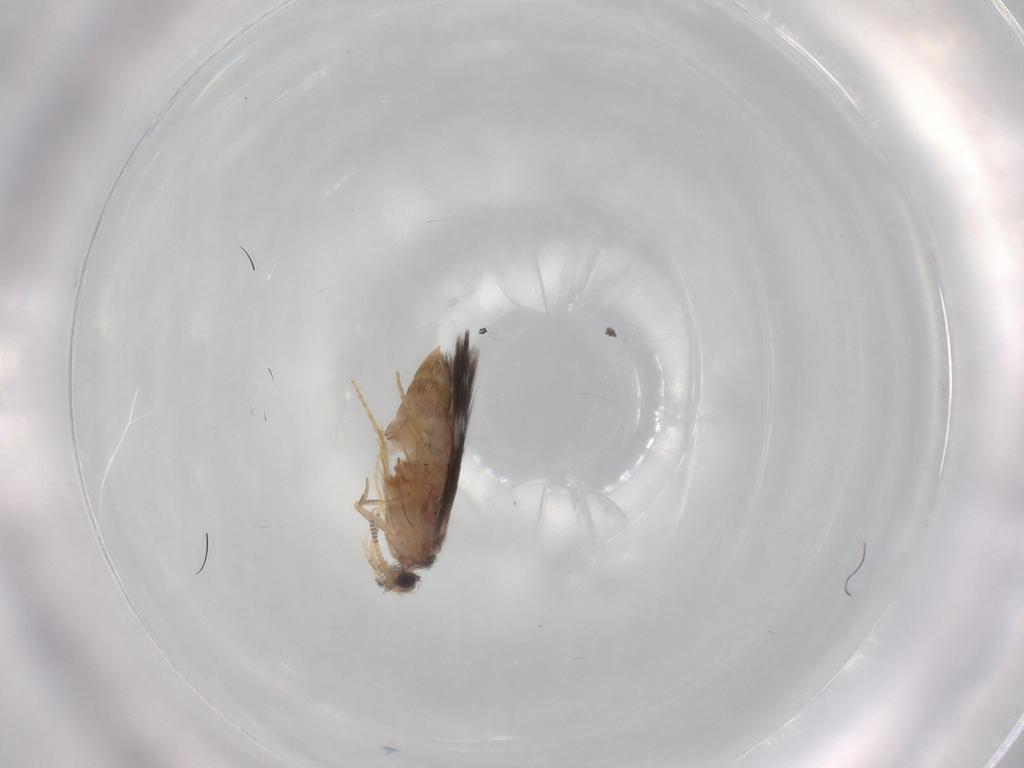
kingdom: Animalia
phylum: Arthropoda
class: Insecta
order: Trichoptera
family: Hydroptilidae
